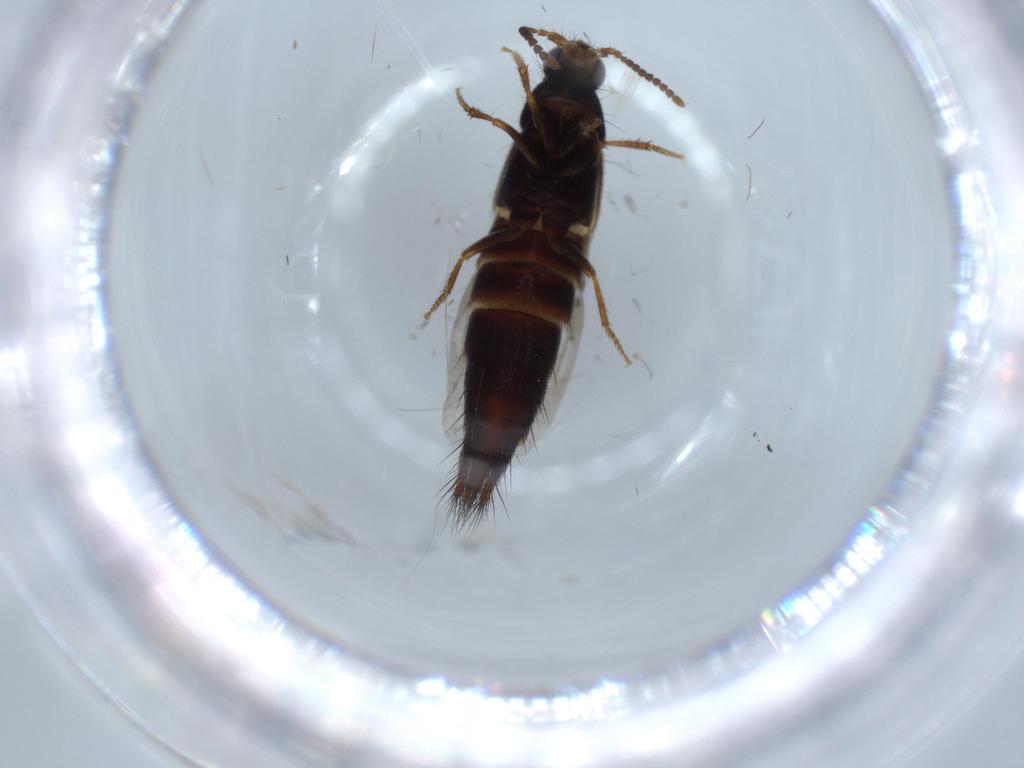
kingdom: Animalia
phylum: Arthropoda
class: Insecta
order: Coleoptera
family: Staphylinidae
